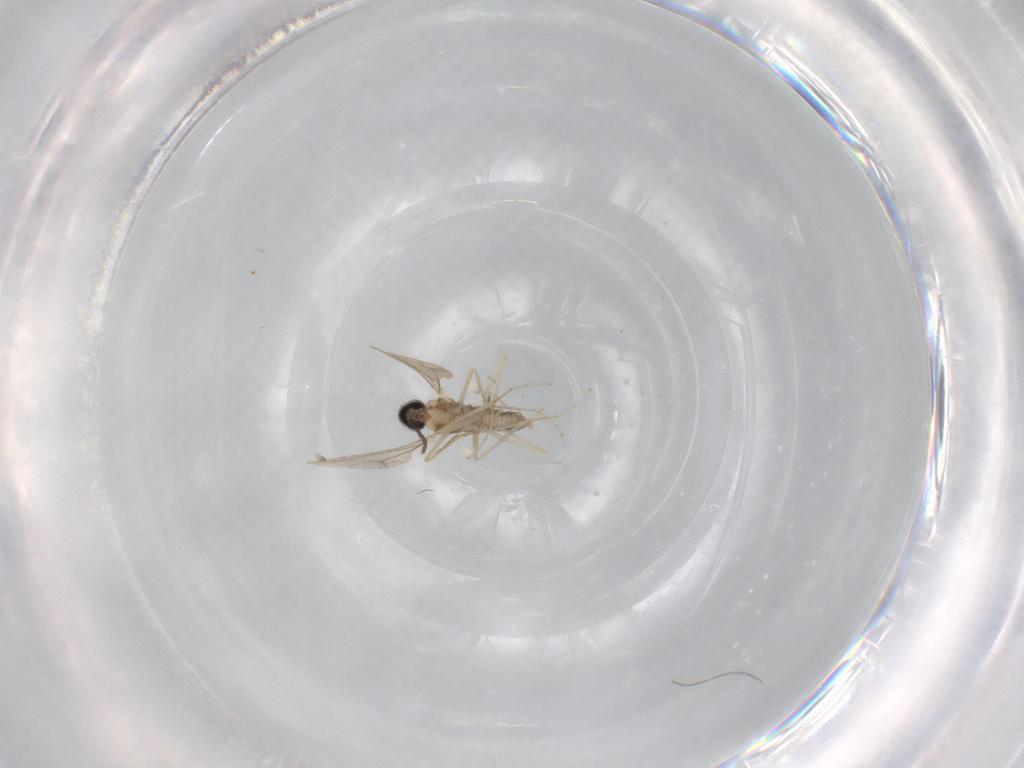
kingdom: Animalia
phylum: Arthropoda
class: Insecta
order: Diptera
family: Cecidomyiidae
